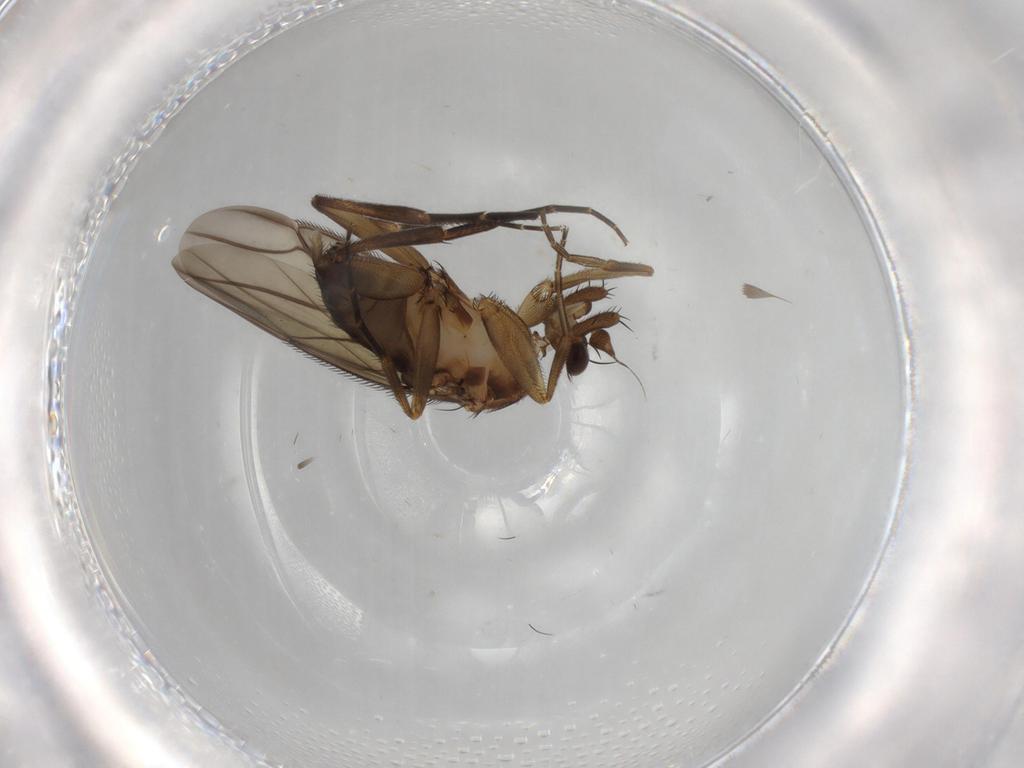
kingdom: Animalia
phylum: Arthropoda
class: Insecta
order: Diptera
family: Phoridae
